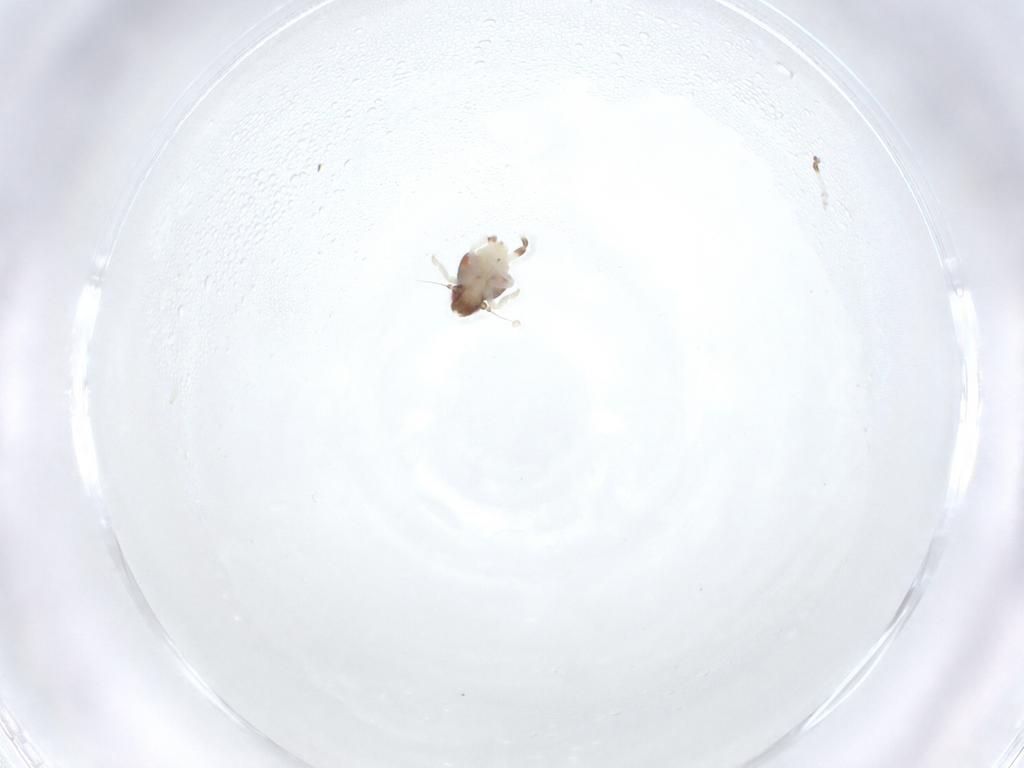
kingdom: Animalia
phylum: Arthropoda
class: Insecta
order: Hemiptera
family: Nogodinidae
